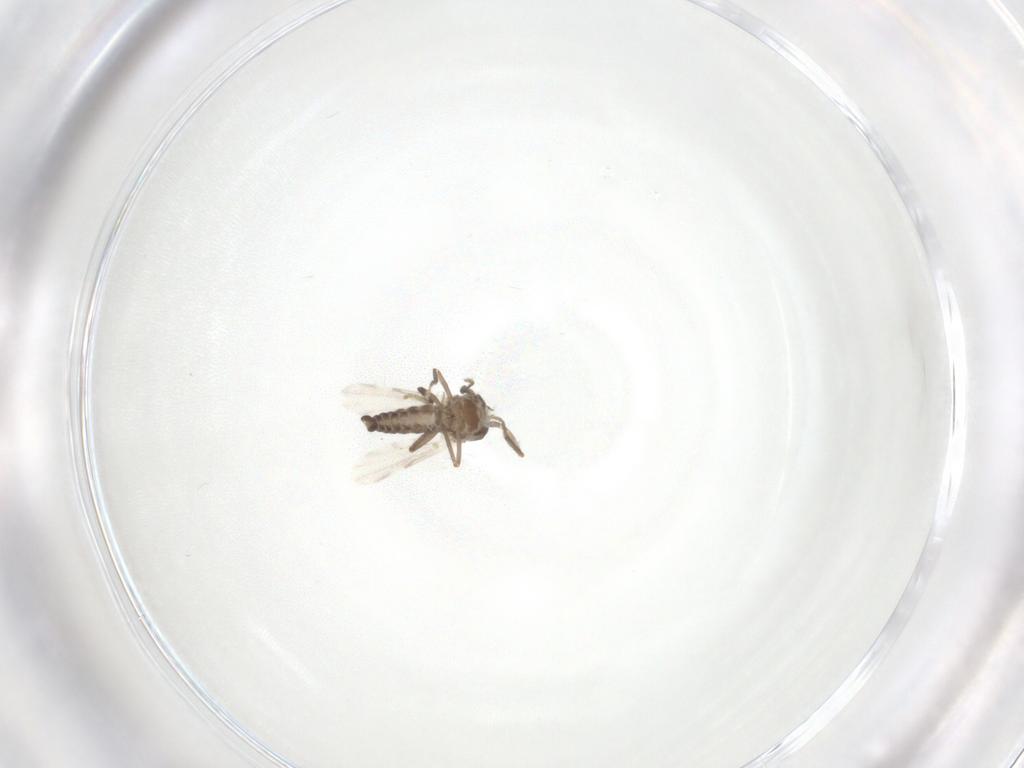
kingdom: Animalia
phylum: Arthropoda
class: Insecta
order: Diptera
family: Ceratopogonidae
